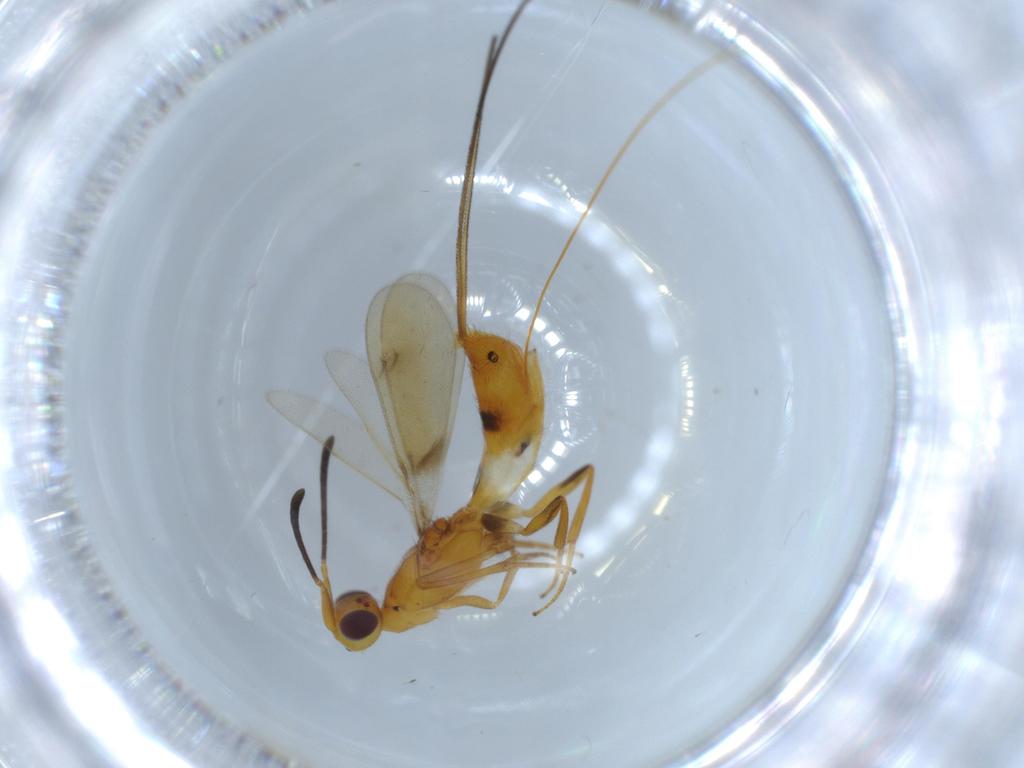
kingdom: Animalia
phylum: Arthropoda
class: Insecta
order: Hymenoptera
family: Eupelmidae
